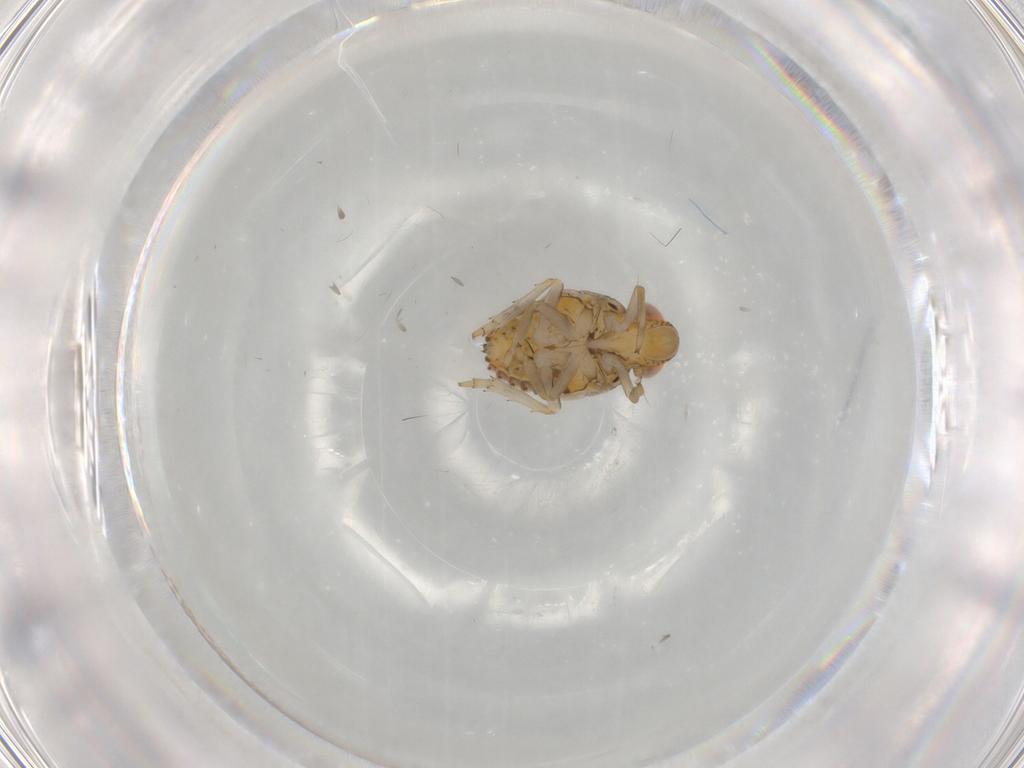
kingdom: Animalia
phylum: Arthropoda
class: Insecta
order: Hemiptera
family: Issidae
